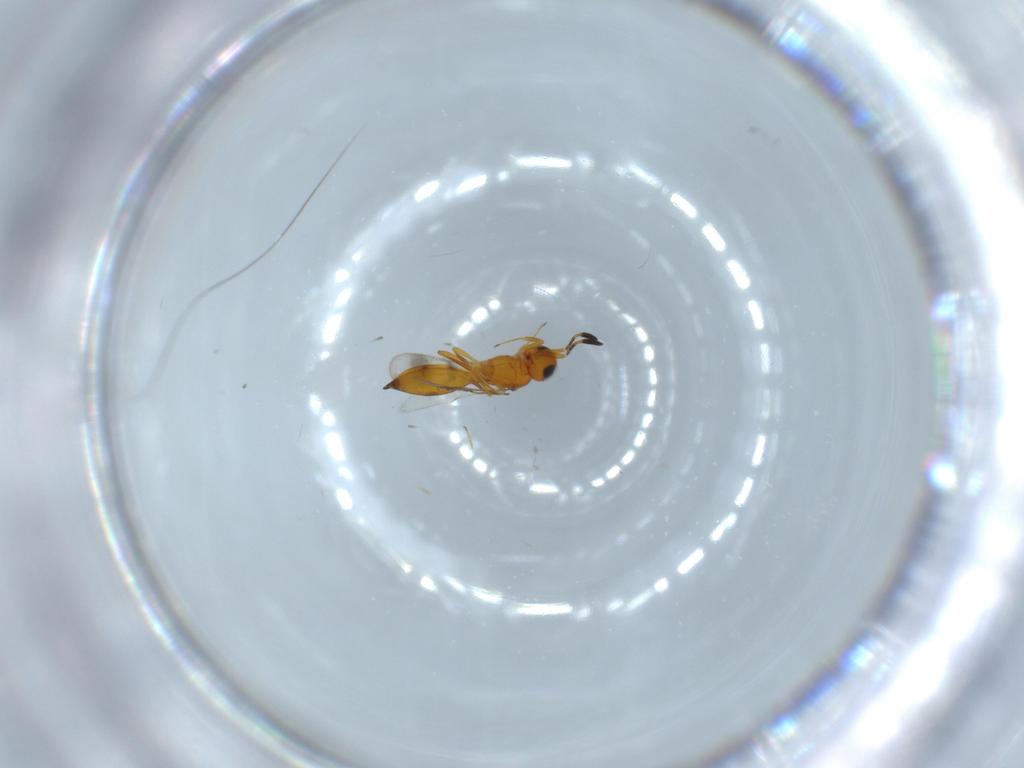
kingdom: Animalia
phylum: Arthropoda
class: Insecta
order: Hymenoptera
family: Scelionidae
